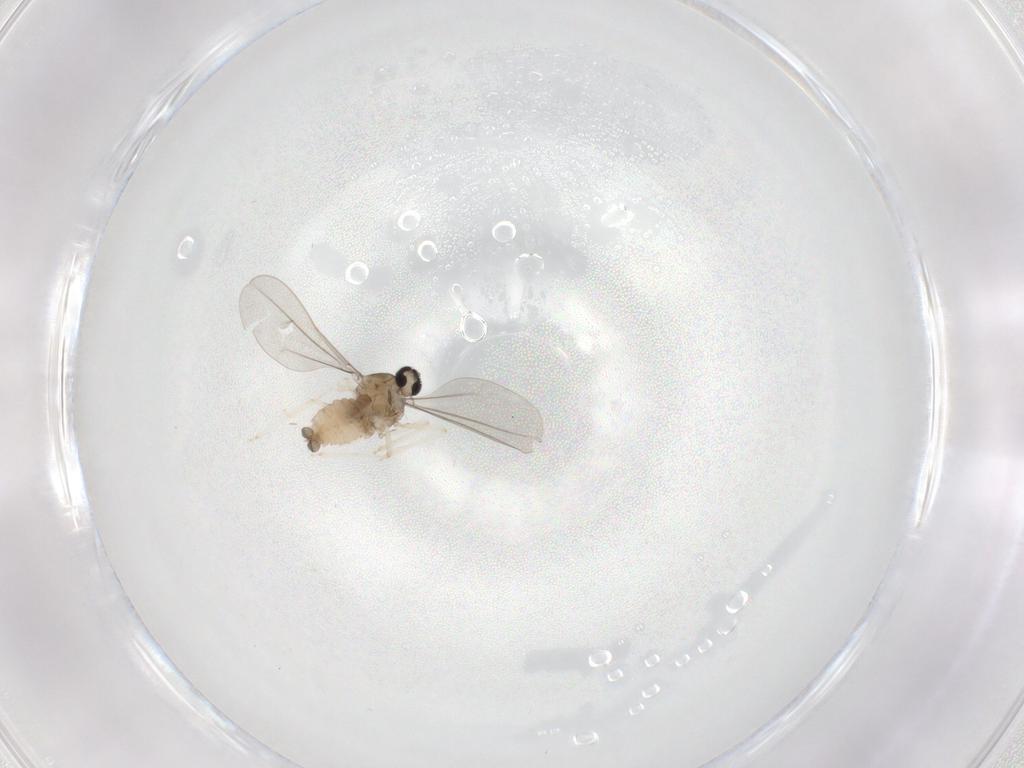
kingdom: Animalia
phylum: Arthropoda
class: Insecta
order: Diptera
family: Cecidomyiidae
